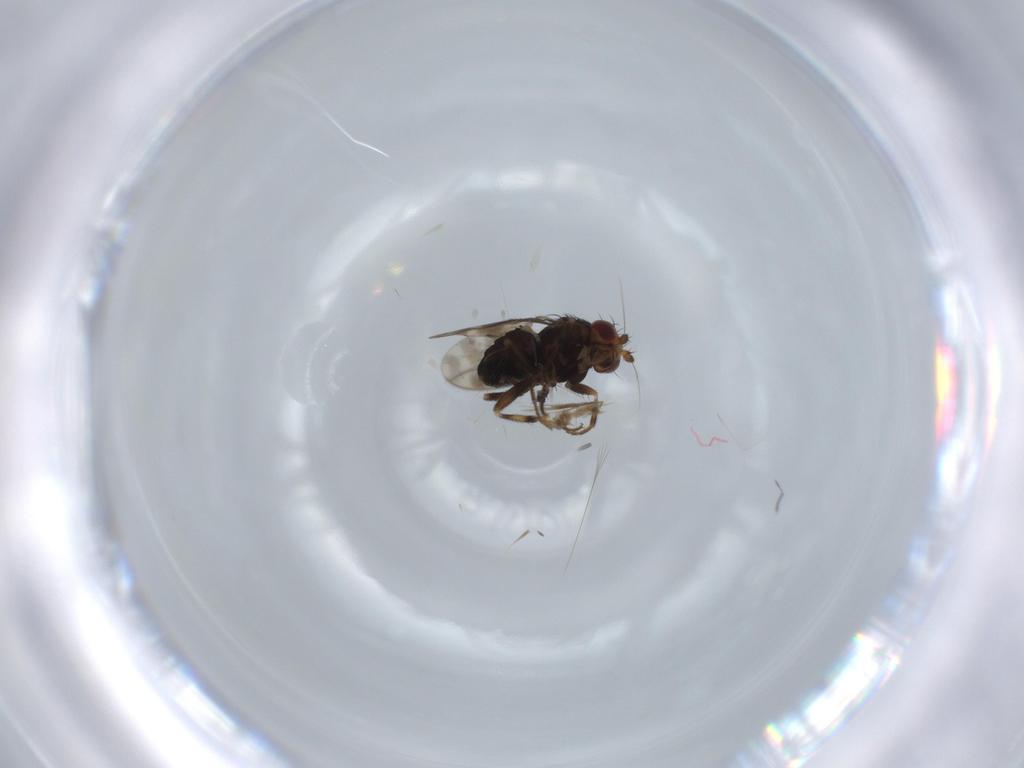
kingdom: Animalia
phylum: Arthropoda
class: Insecta
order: Diptera
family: Sphaeroceridae
